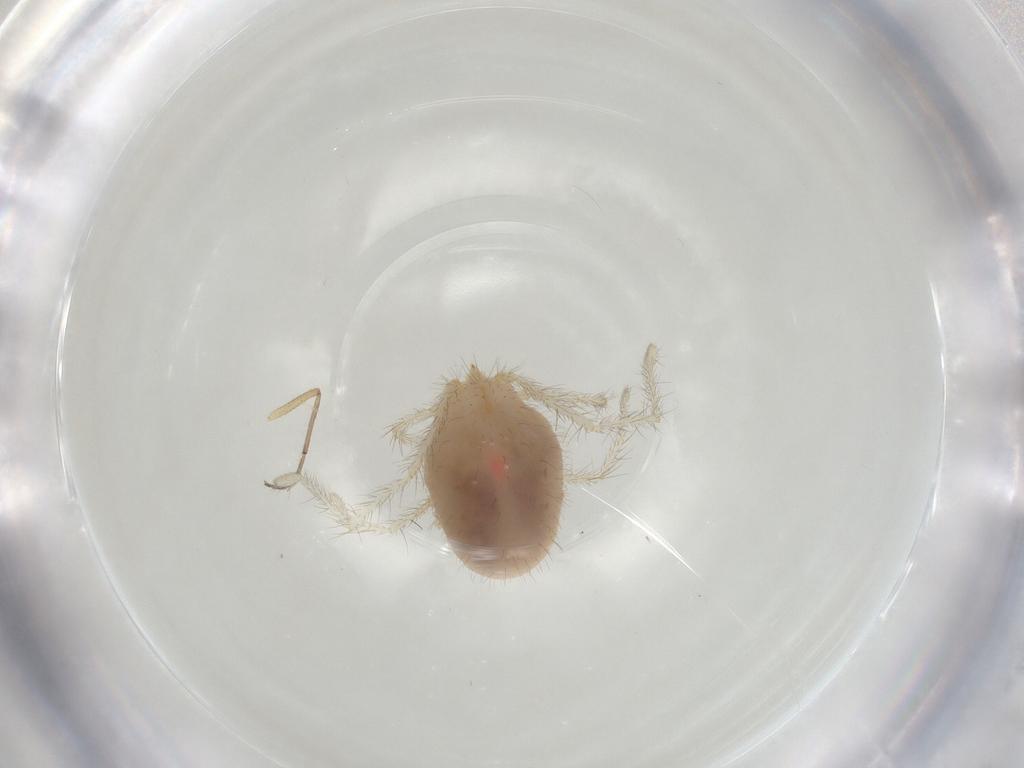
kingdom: Animalia
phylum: Arthropoda
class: Arachnida
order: Trombidiformes
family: Erythraeidae
